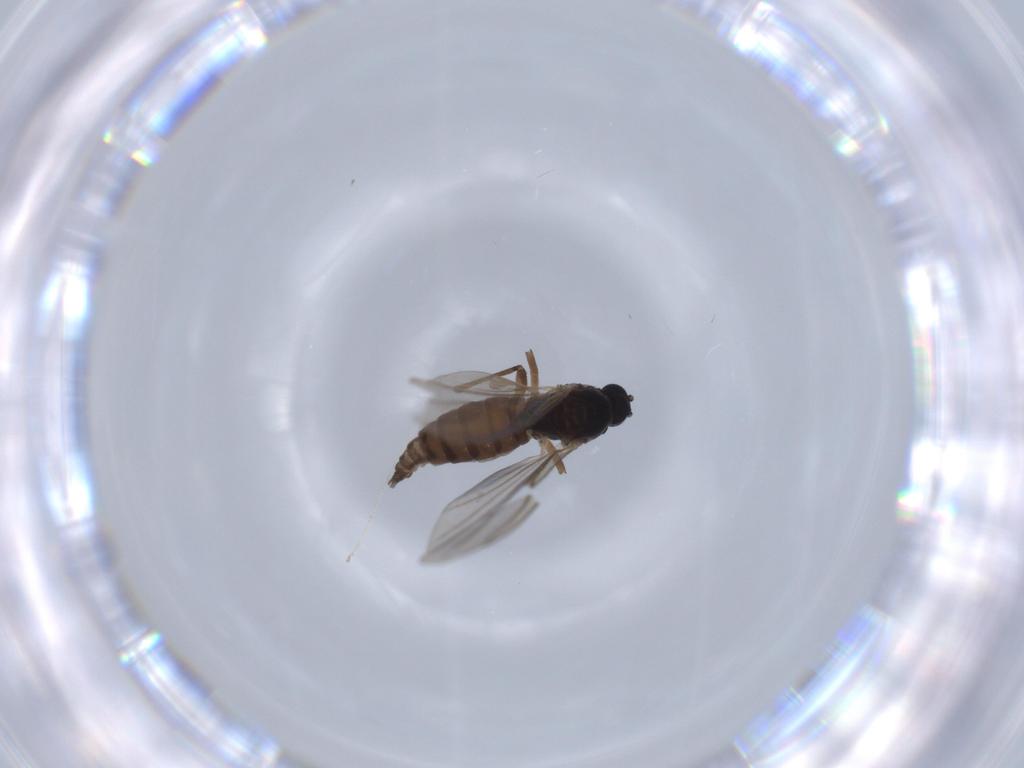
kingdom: Animalia
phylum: Arthropoda
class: Insecta
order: Diptera
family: Sciaridae
